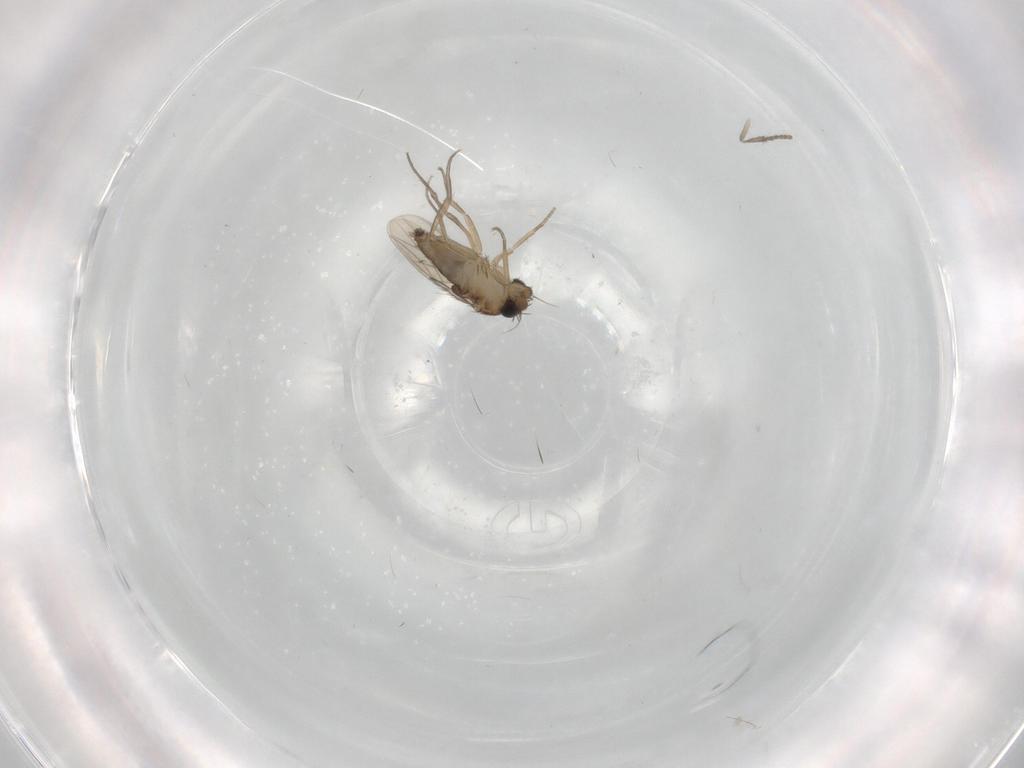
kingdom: Animalia
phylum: Arthropoda
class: Insecta
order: Diptera
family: Phoridae
